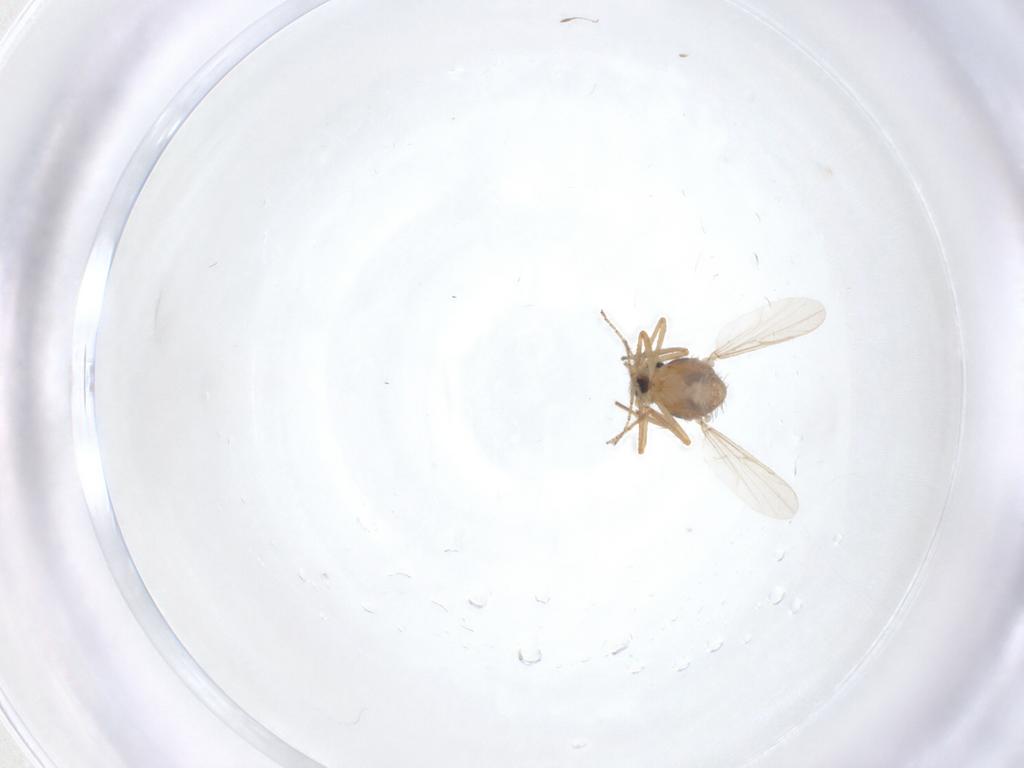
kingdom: Animalia
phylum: Arthropoda
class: Insecta
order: Diptera
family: Ceratopogonidae
